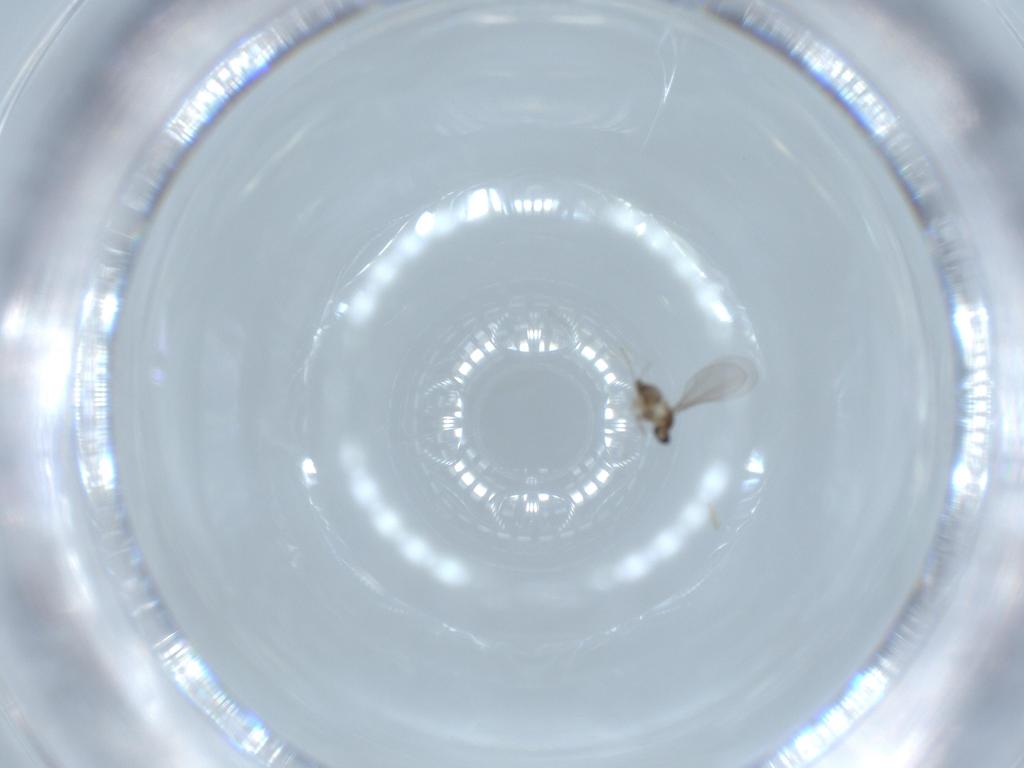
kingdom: Animalia
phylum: Arthropoda
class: Insecta
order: Diptera
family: Cecidomyiidae
